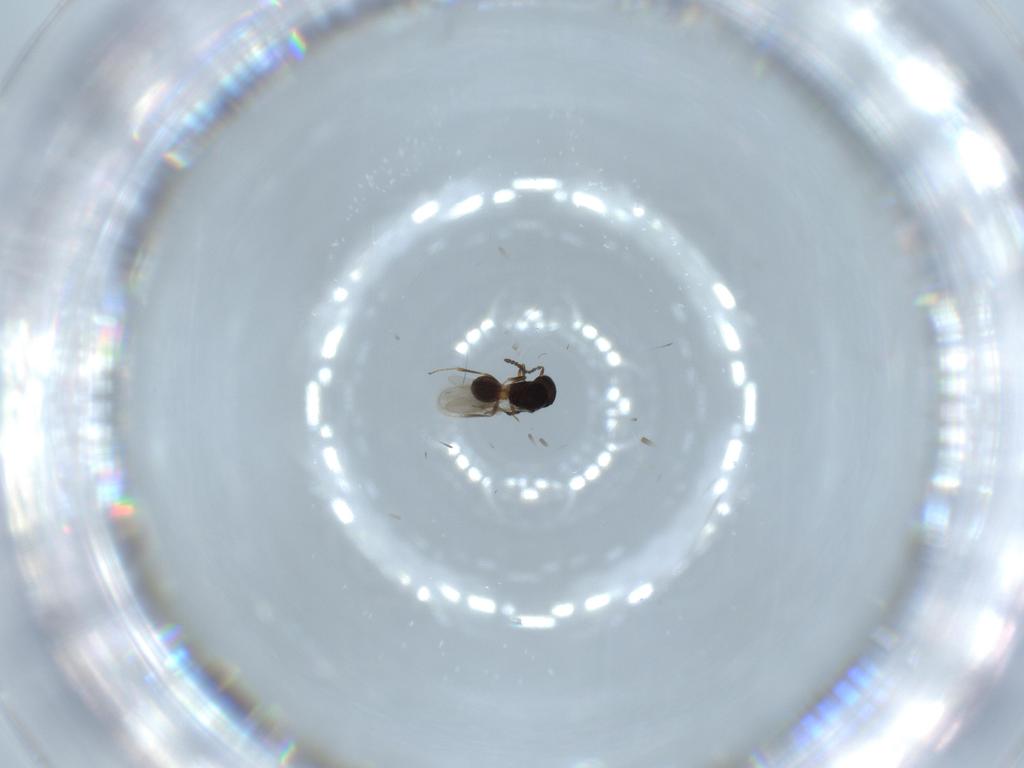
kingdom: Animalia
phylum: Arthropoda
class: Insecta
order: Hymenoptera
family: Scelionidae
